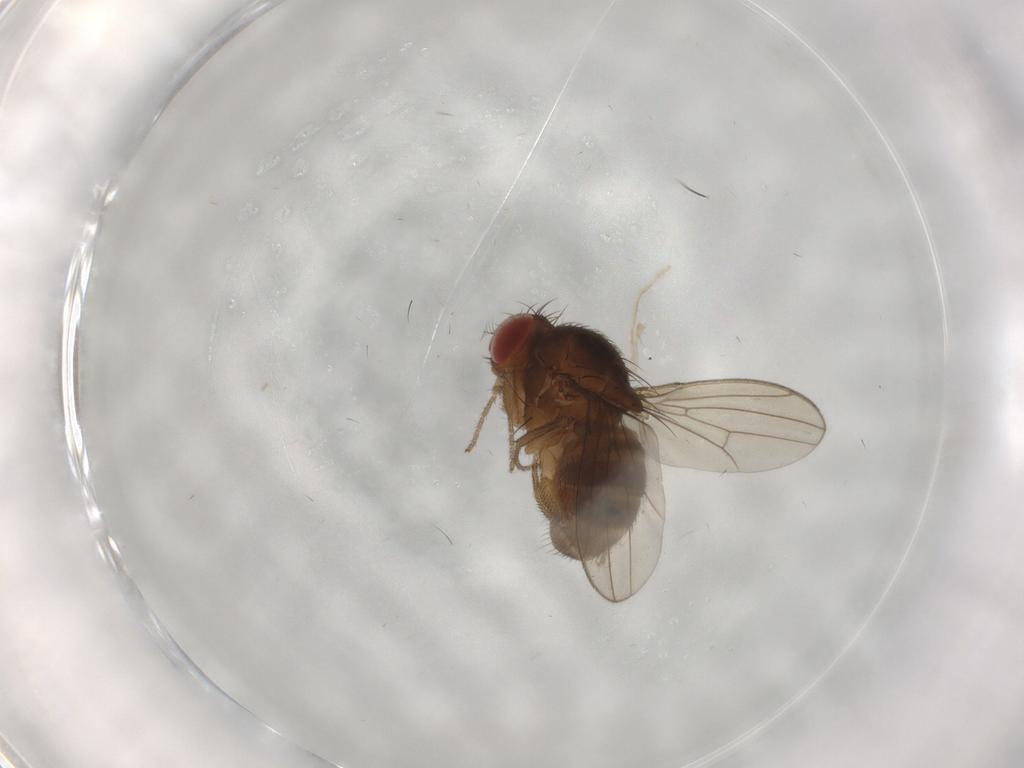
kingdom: Animalia
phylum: Arthropoda
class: Insecta
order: Diptera
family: Drosophilidae
